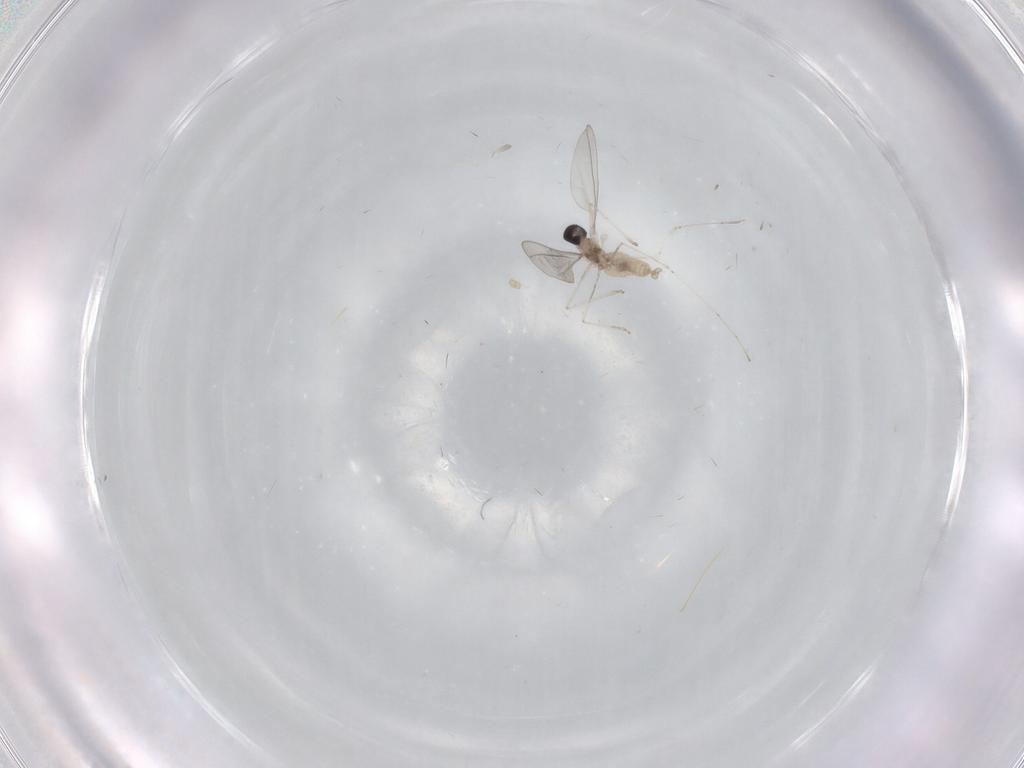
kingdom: Animalia
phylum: Arthropoda
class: Insecta
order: Diptera
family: Cecidomyiidae
